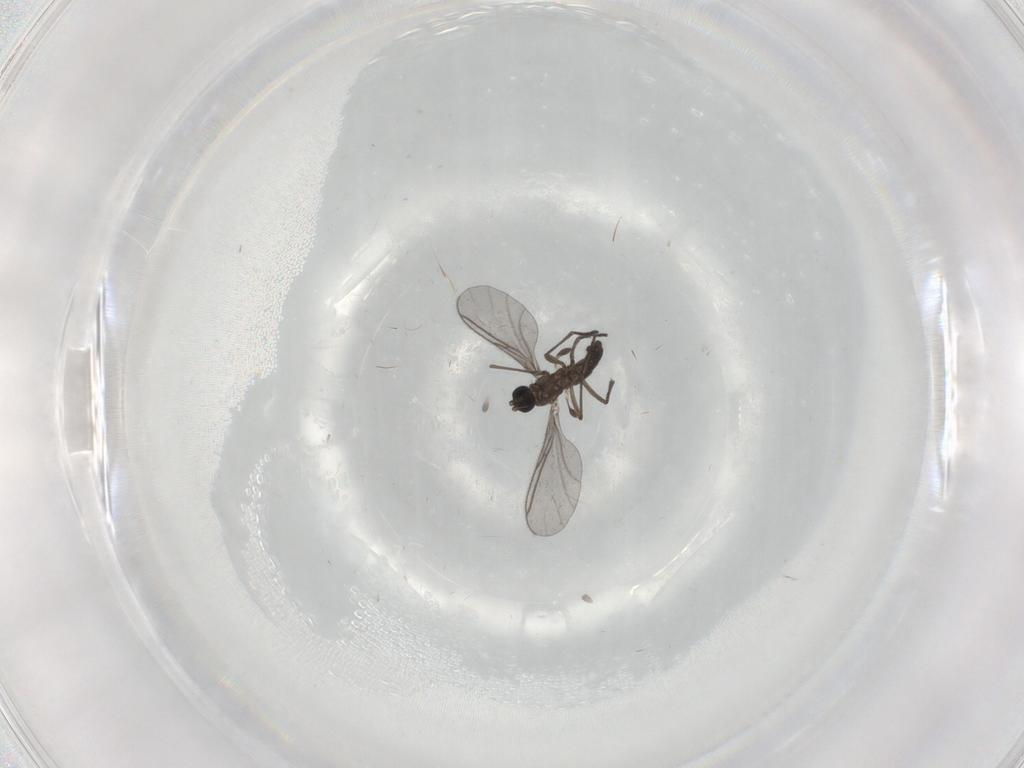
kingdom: Animalia
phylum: Arthropoda
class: Insecta
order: Diptera
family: Cecidomyiidae
